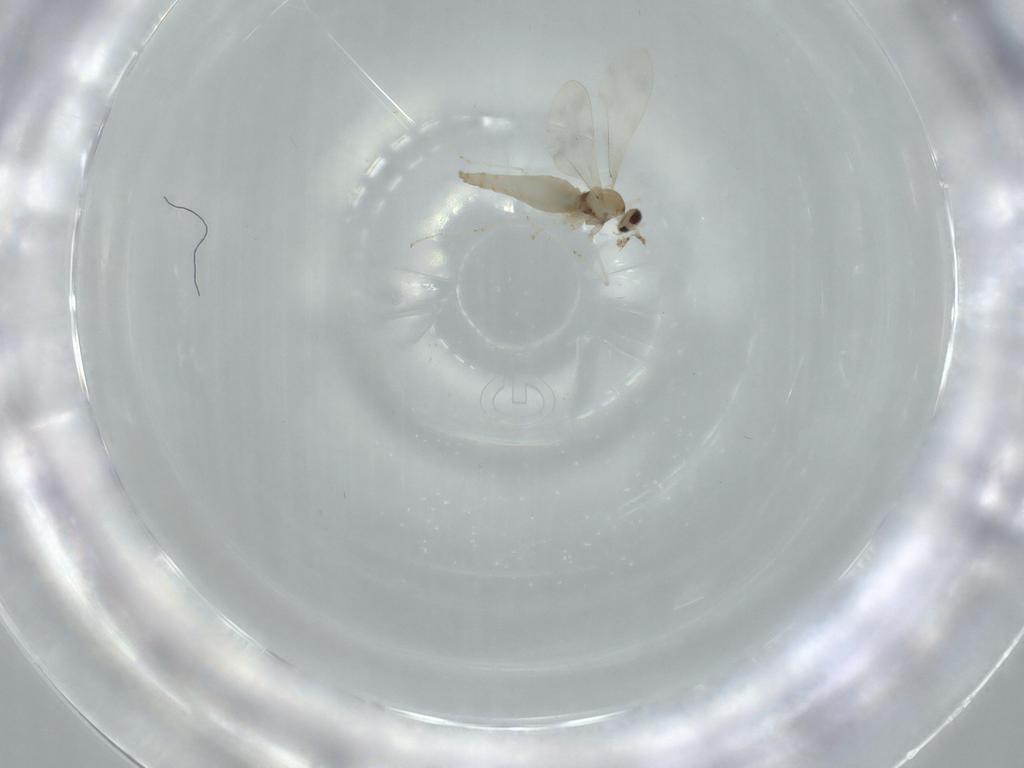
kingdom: Animalia
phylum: Arthropoda
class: Insecta
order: Diptera
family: Cecidomyiidae
